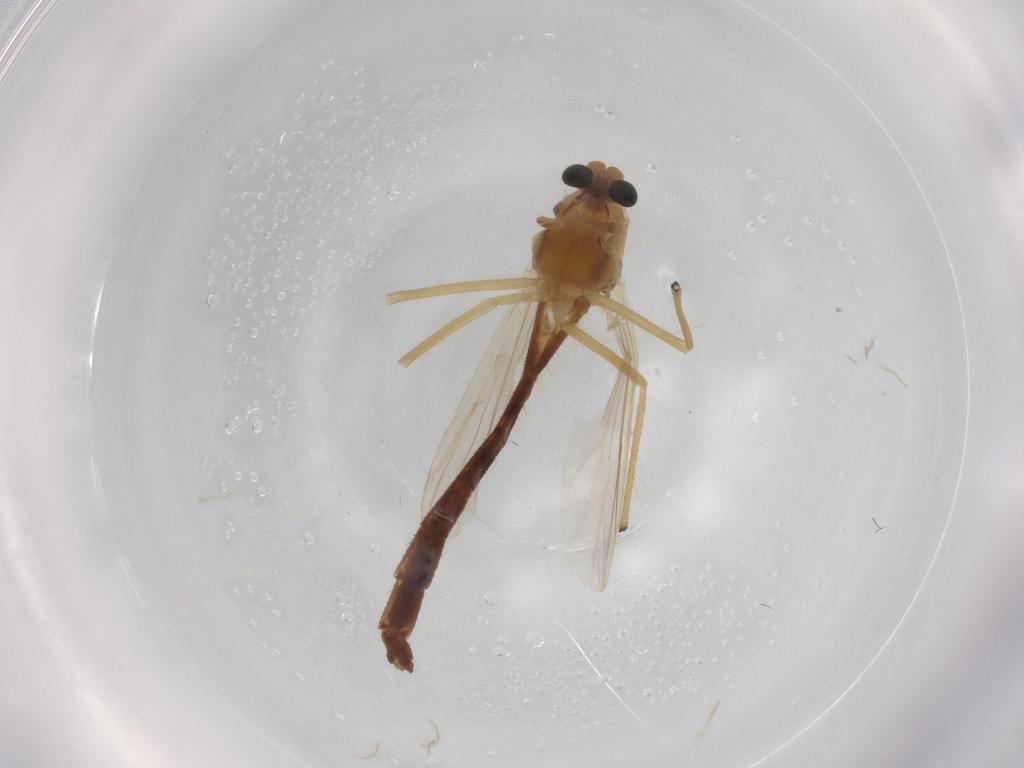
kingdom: Animalia
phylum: Arthropoda
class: Insecta
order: Diptera
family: Chironomidae
